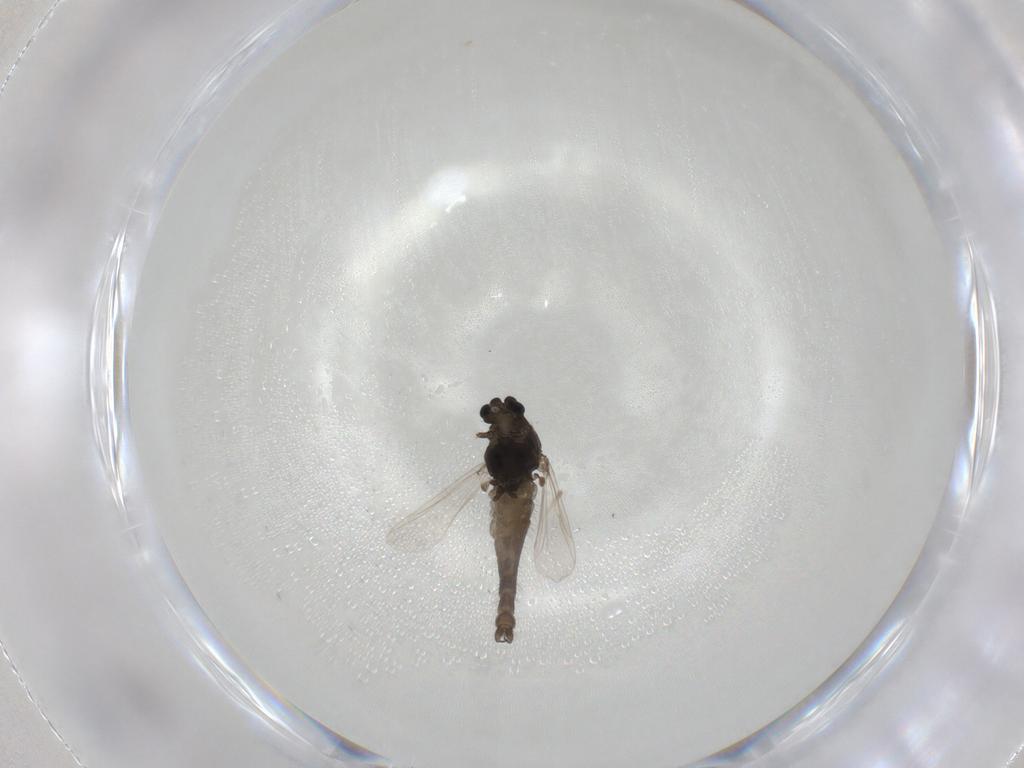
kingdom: Animalia
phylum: Arthropoda
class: Insecta
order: Diptera
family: Chironomidae
